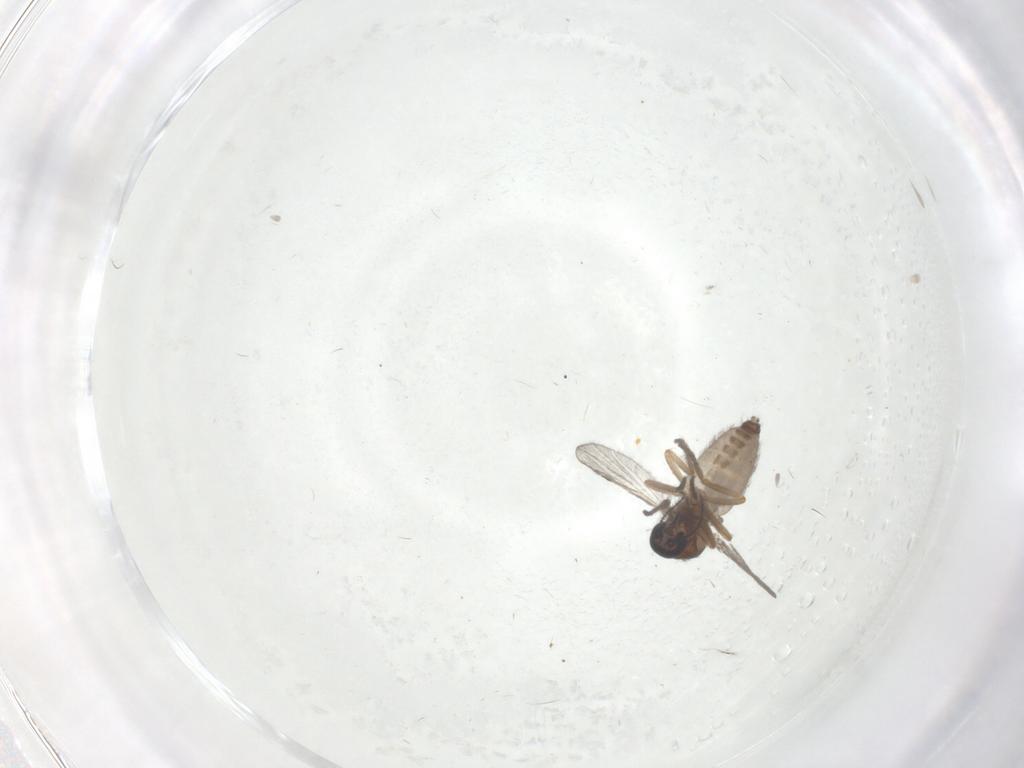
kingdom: Animalia
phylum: Arthropoda
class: Insecta
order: Diptera
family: Ceratopogonidae
